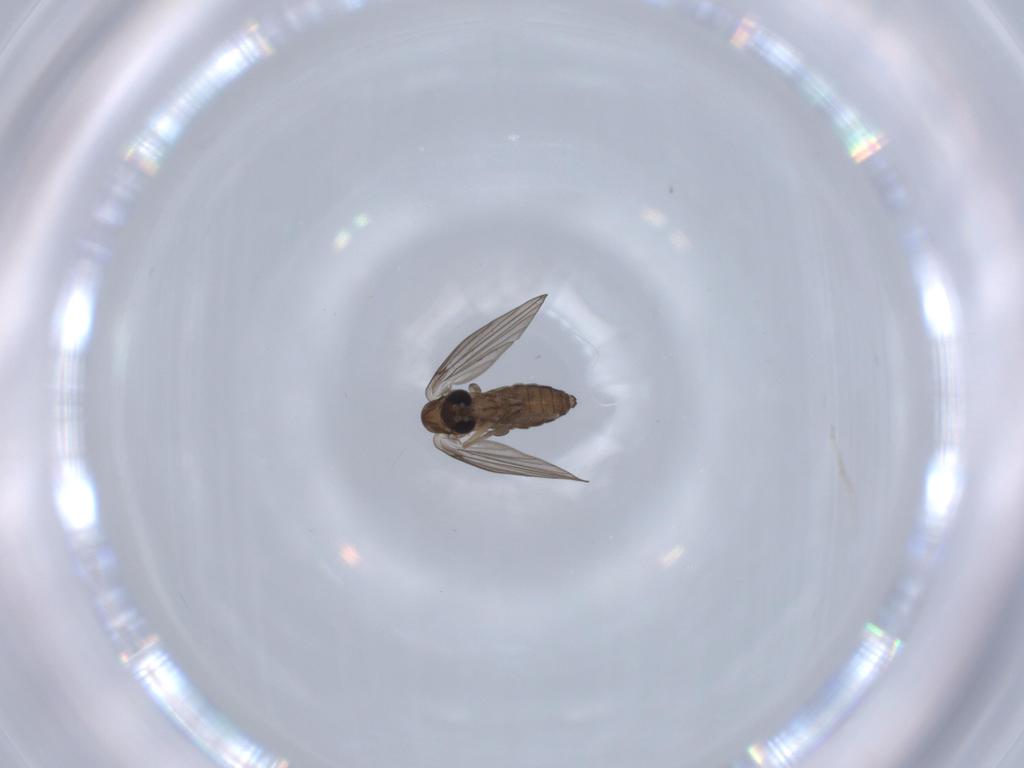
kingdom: Animalia
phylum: Arthropoda
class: Insecta
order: Diptera
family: Psychodidae
